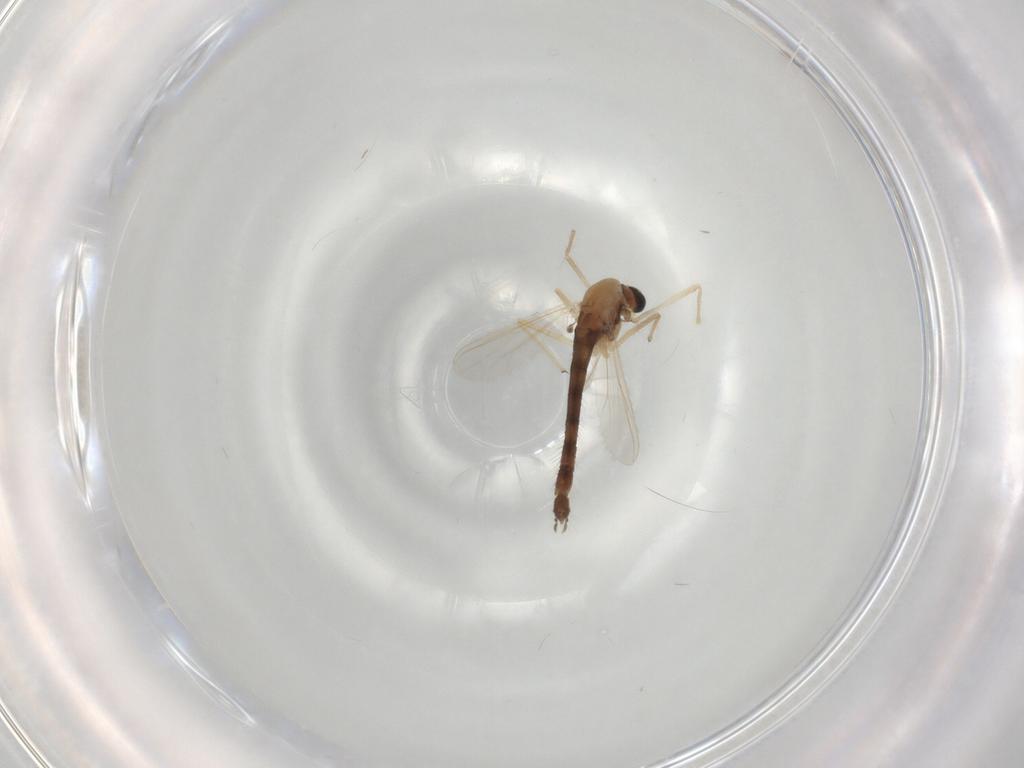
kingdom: Animalia
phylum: Arthropoda
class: Insecta
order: Diptera
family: Chironomidae
